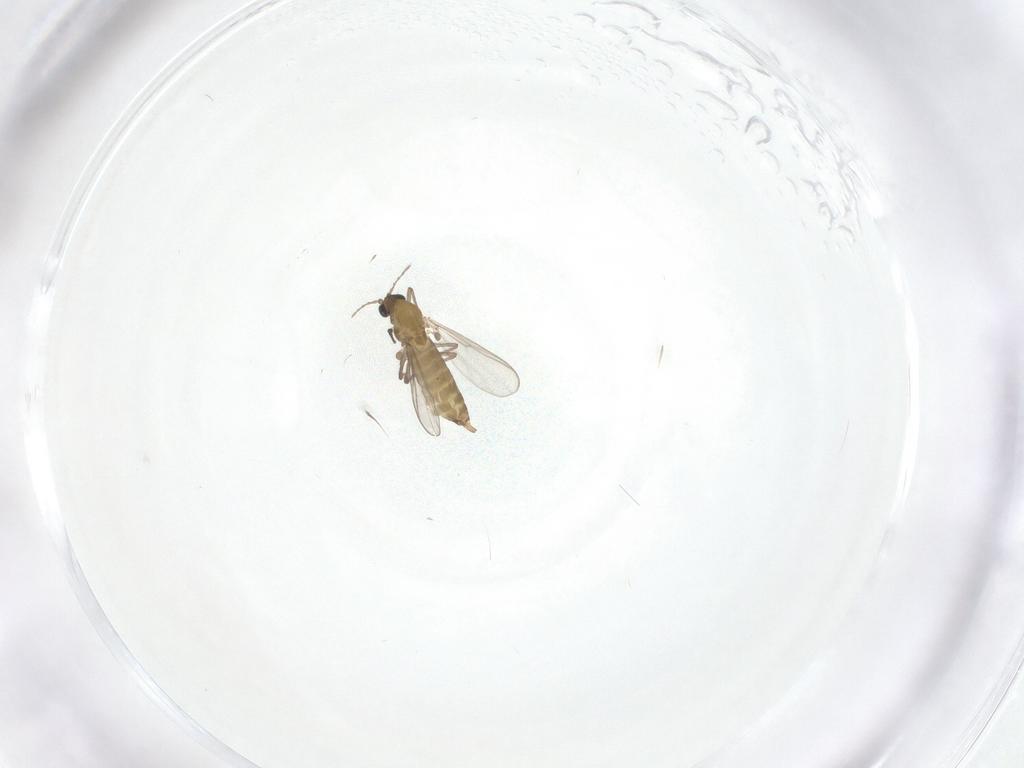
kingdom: Animalia
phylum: Arthropoda
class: Insecta
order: Diptera
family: Chironomidae
